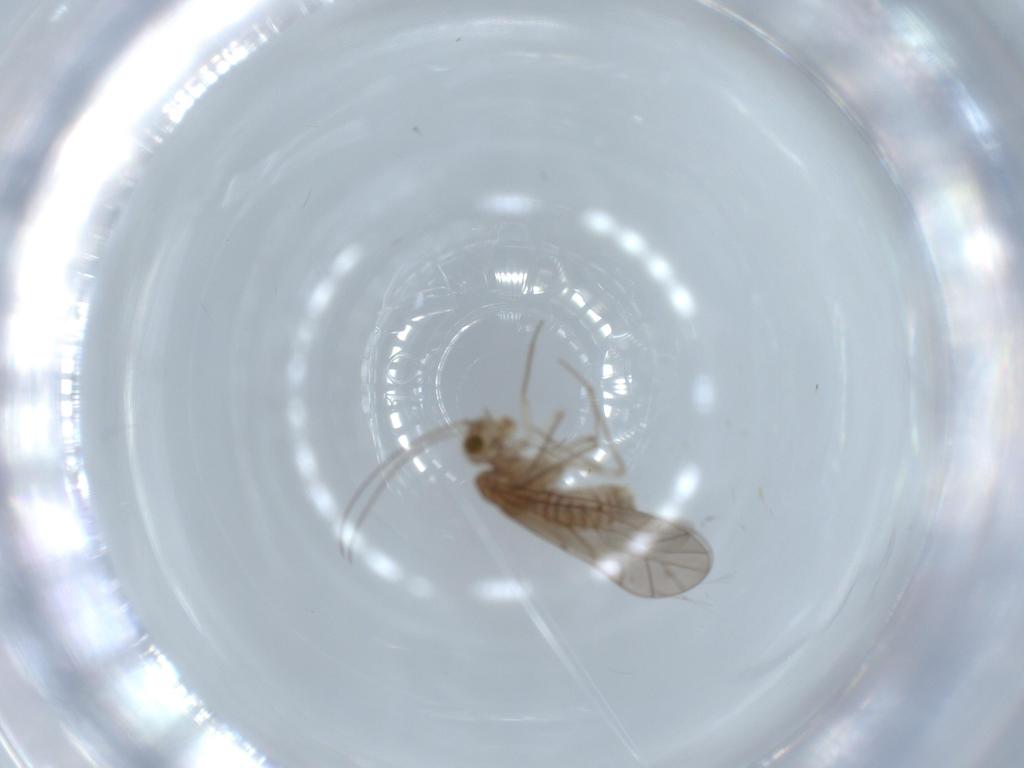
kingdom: Animalia
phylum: Arthropoda
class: Insecta
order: Psocodea
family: Lachesillidae
